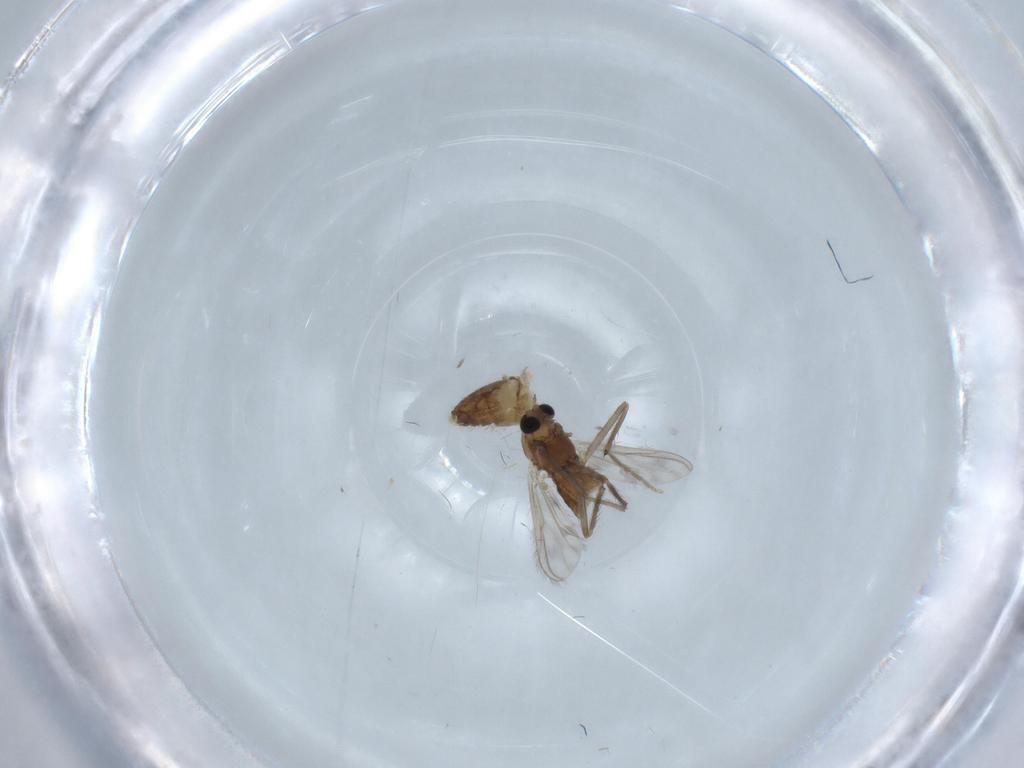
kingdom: Animalia
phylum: Arthropoda
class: Insecta
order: Diptera
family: Chironomidae
